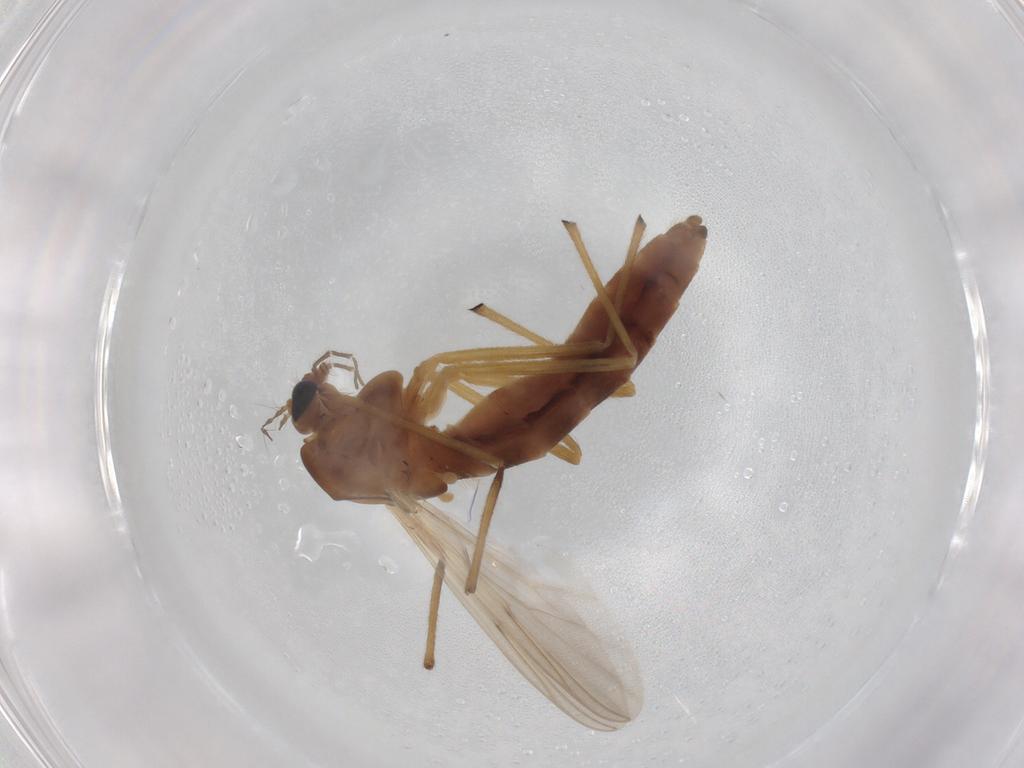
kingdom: Animalia
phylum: Arthropoda
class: Insecta
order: Diptera
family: Chironomidae
